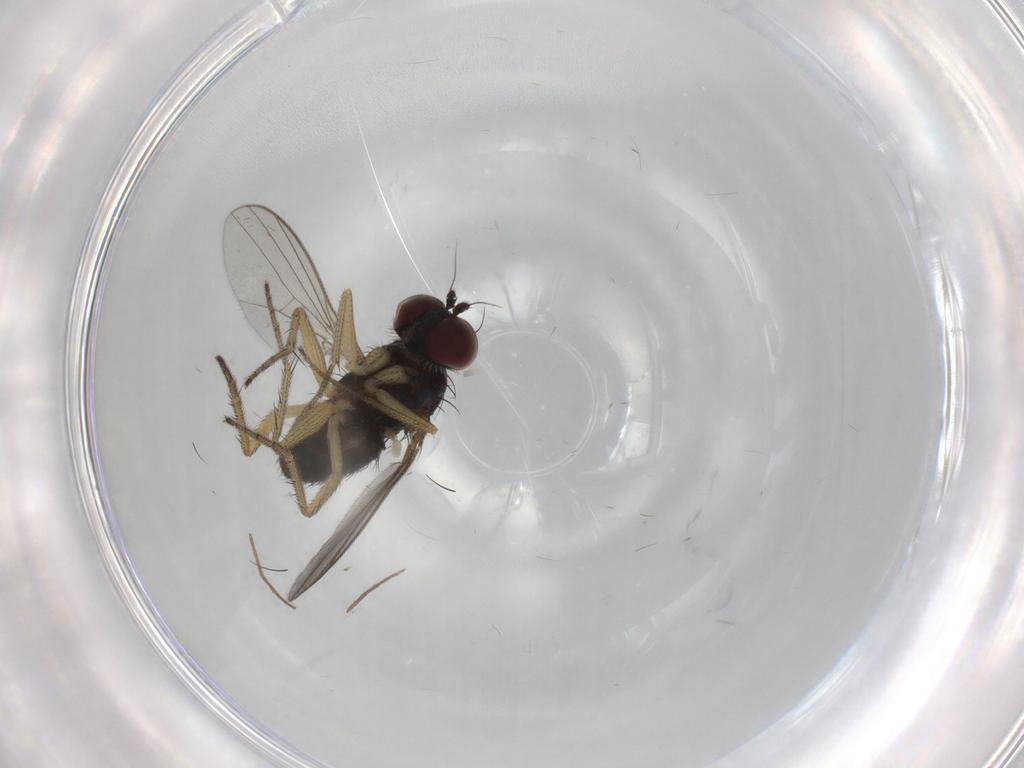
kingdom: Animalia
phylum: Arthropoda
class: Insecta
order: Diptera
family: Dolichopodidae
